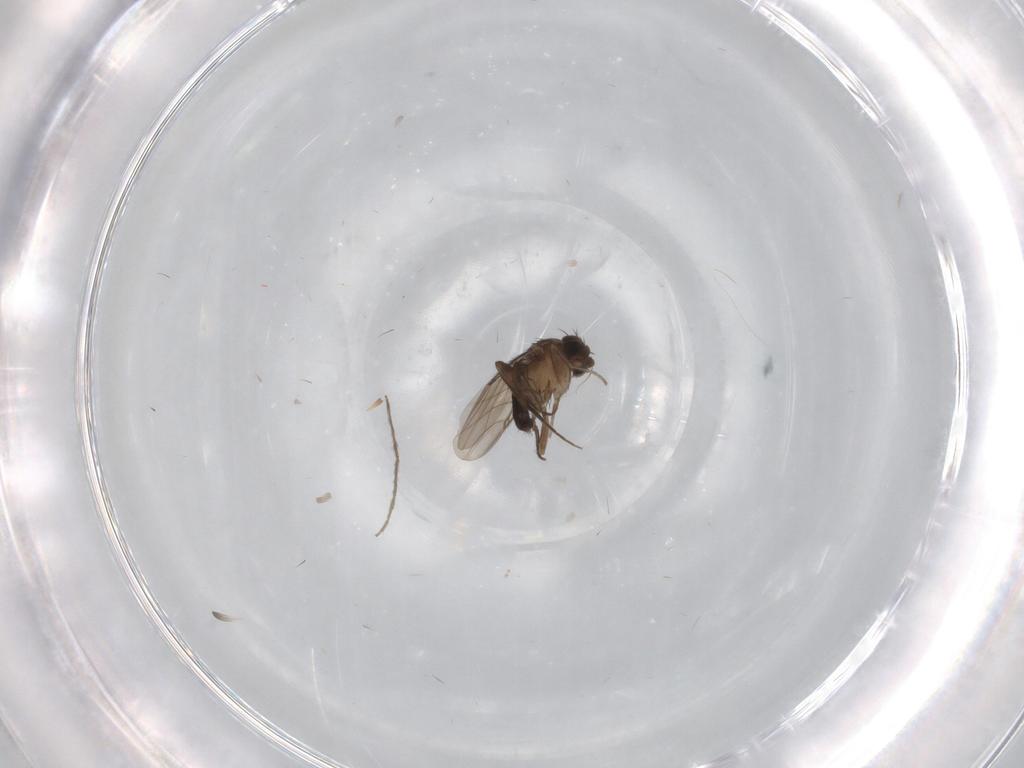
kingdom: Animalia
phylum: Arthropoda
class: Insecta
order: Diptera
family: Chironomidae
